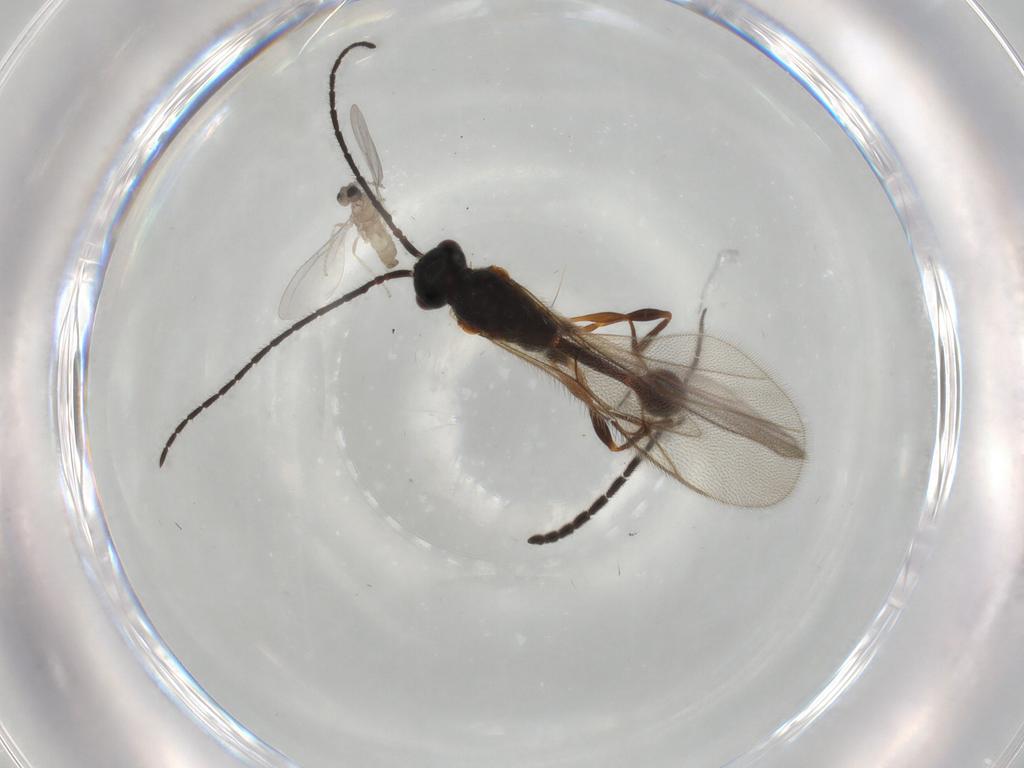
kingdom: Animalia
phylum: Arthropoda
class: Insecta
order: Diptera
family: Cecidomyiidae
